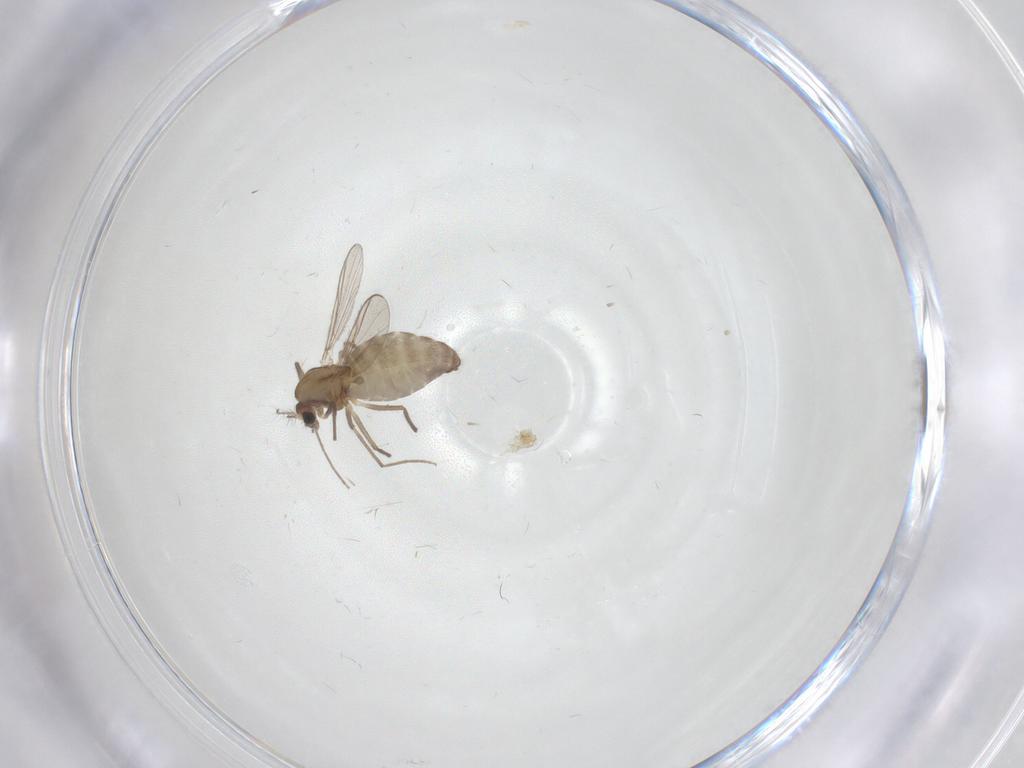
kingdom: Animalia
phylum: Arthropoda
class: Insecta
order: Diptera
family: Chironomidae
